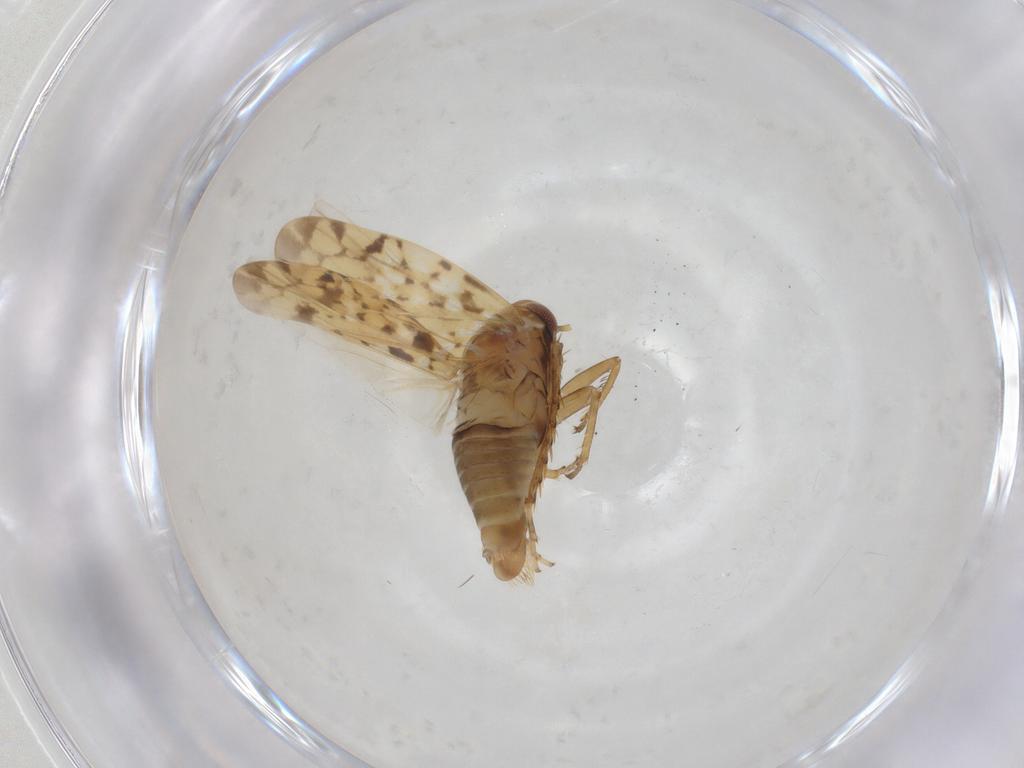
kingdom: Animalia
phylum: Arthropoda
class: Insecta
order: Hemiptera
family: Cicadellidae
